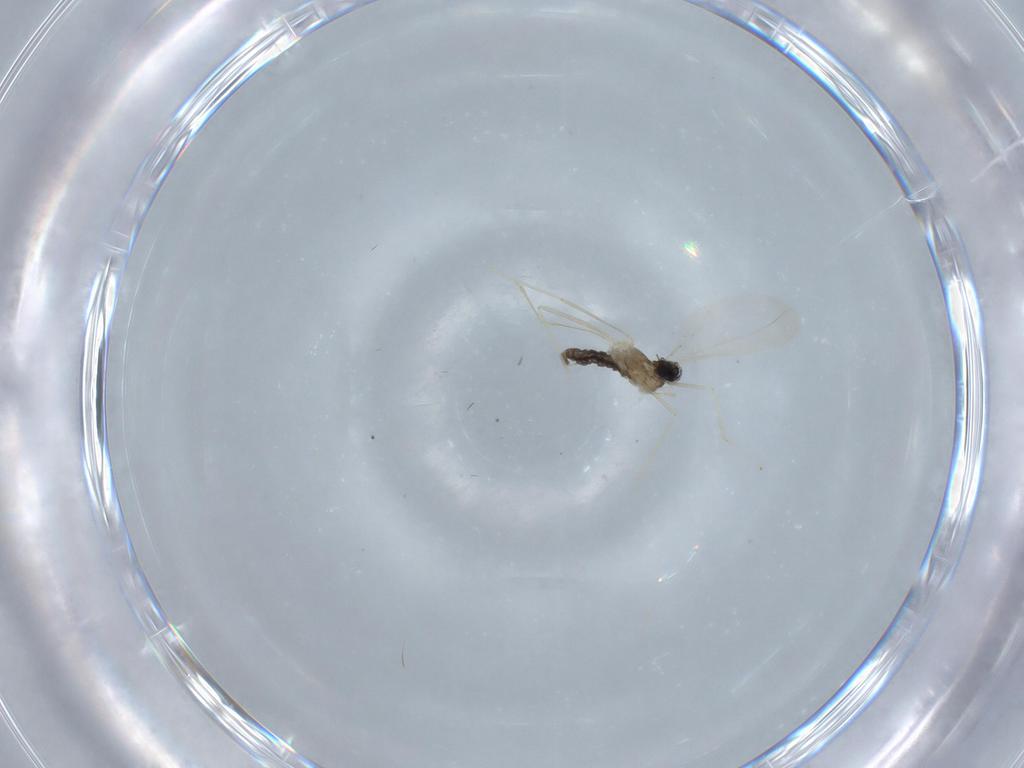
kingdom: Animalia
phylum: Arthropoda
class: Insecta
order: Diptera
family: Cecidomyiidae
